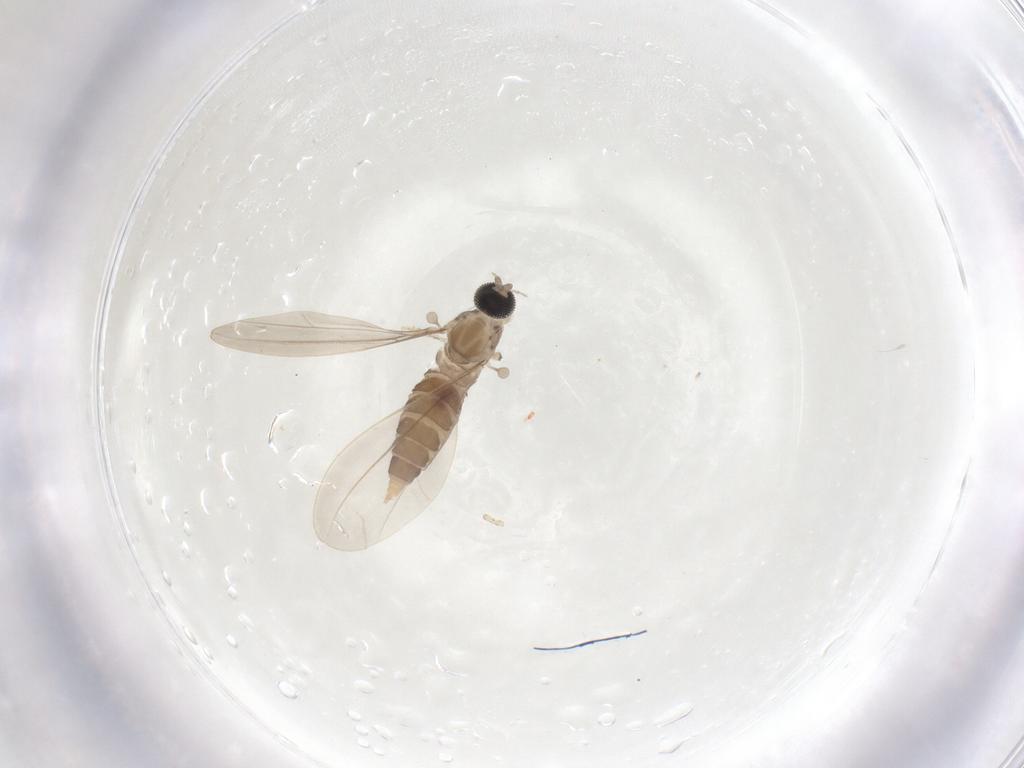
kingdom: Animalia
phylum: Arthropoda
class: Insecta
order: Diptera
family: Cecidomyiidae
